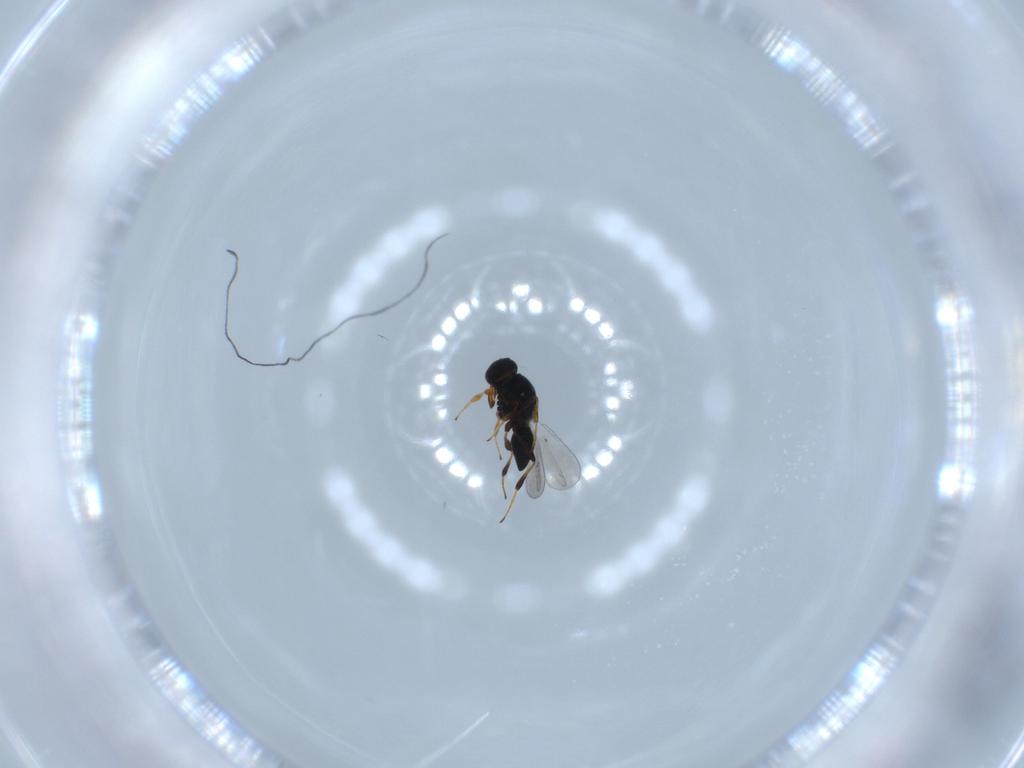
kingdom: Animalia
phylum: Arthropoda
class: Insecta
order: Hymenoptera
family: Platygastridae
